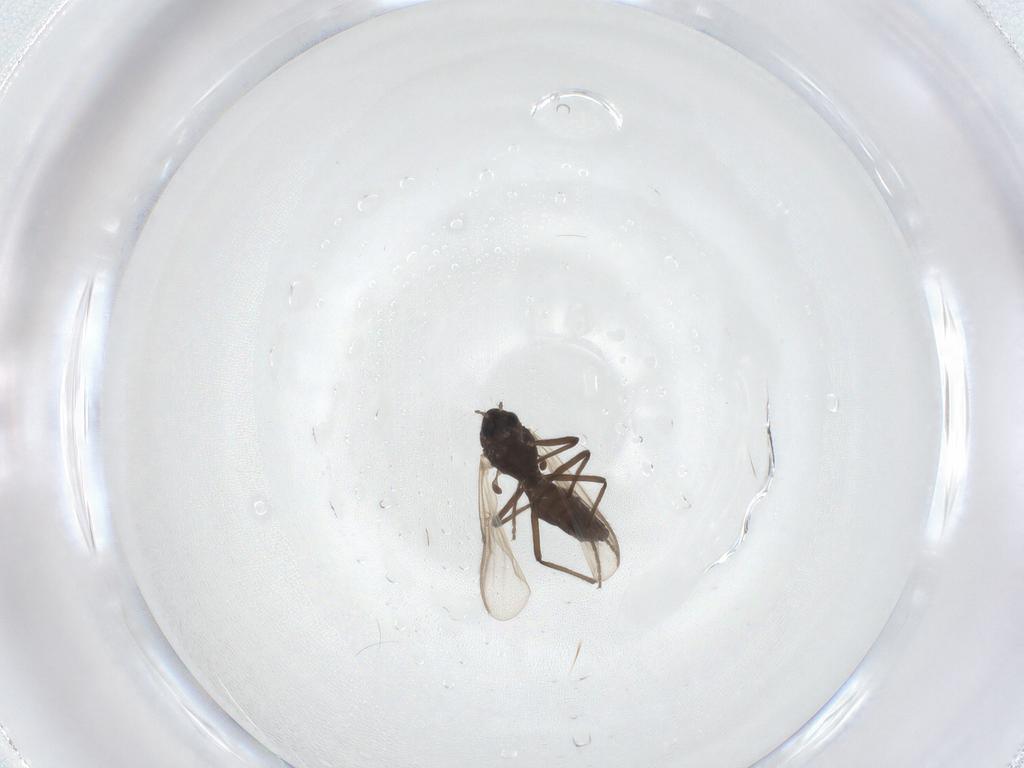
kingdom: Animalia
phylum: Arthropoda
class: Insecta
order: Diptera
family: Chironomidae
